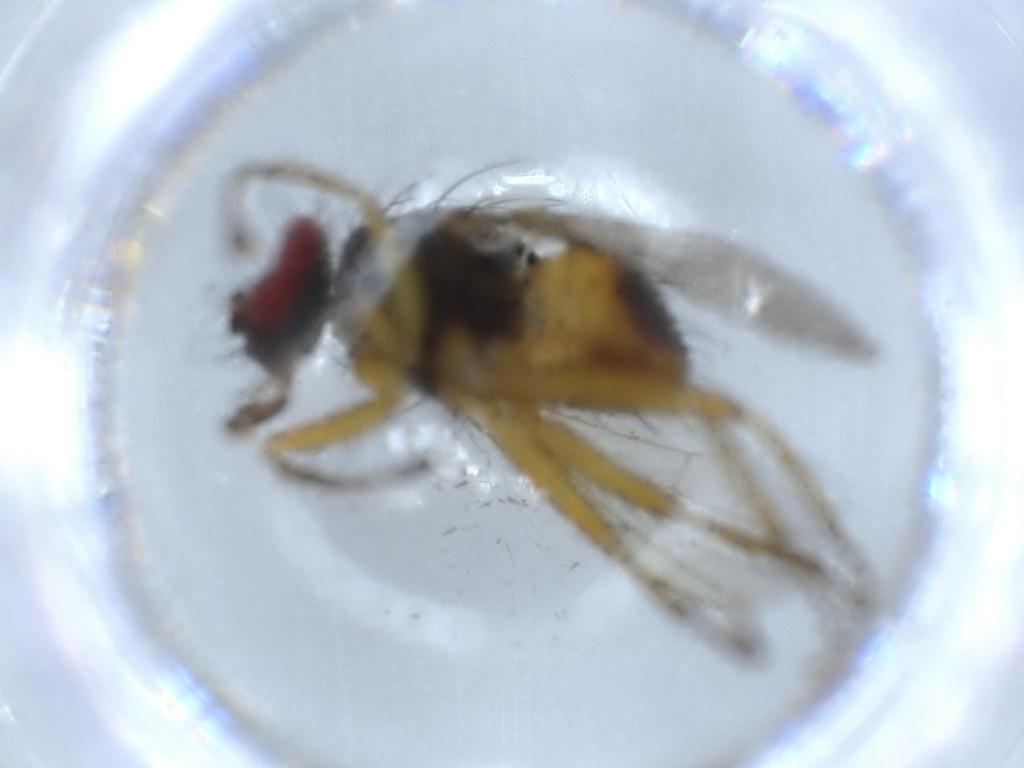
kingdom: Animalia
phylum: Arthropoda
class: Insecta
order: Diptera
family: Muscidae
